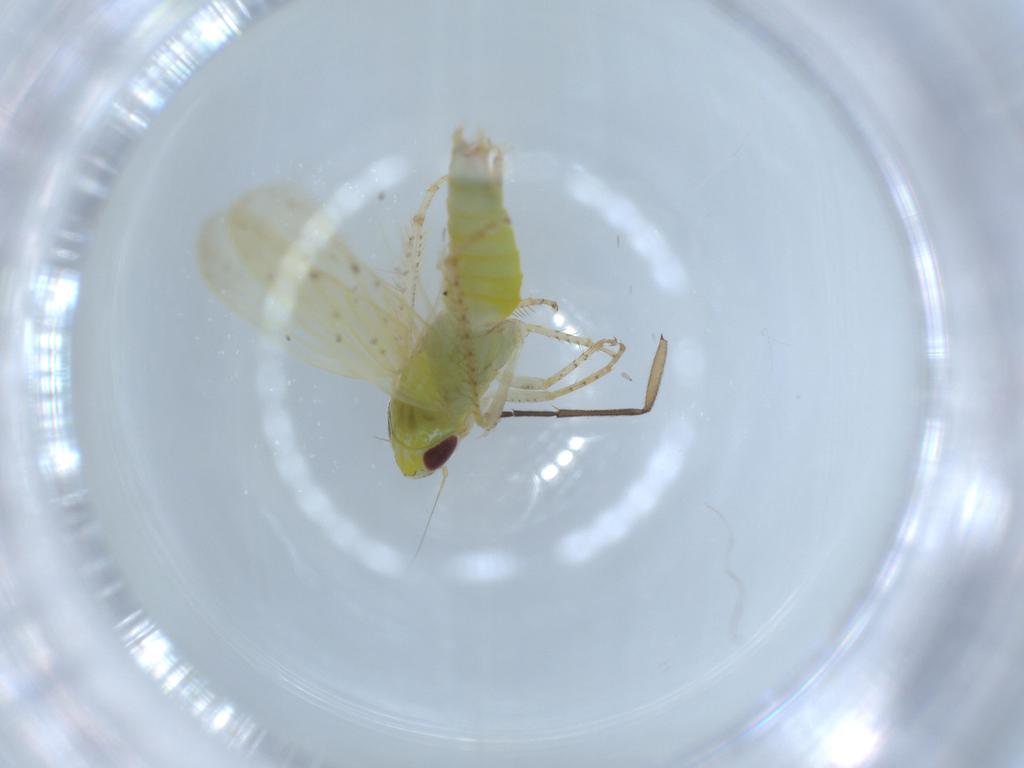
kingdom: Animalia
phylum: Arthropoda
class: Insecta
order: Hemiptera
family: Cicadellidae
